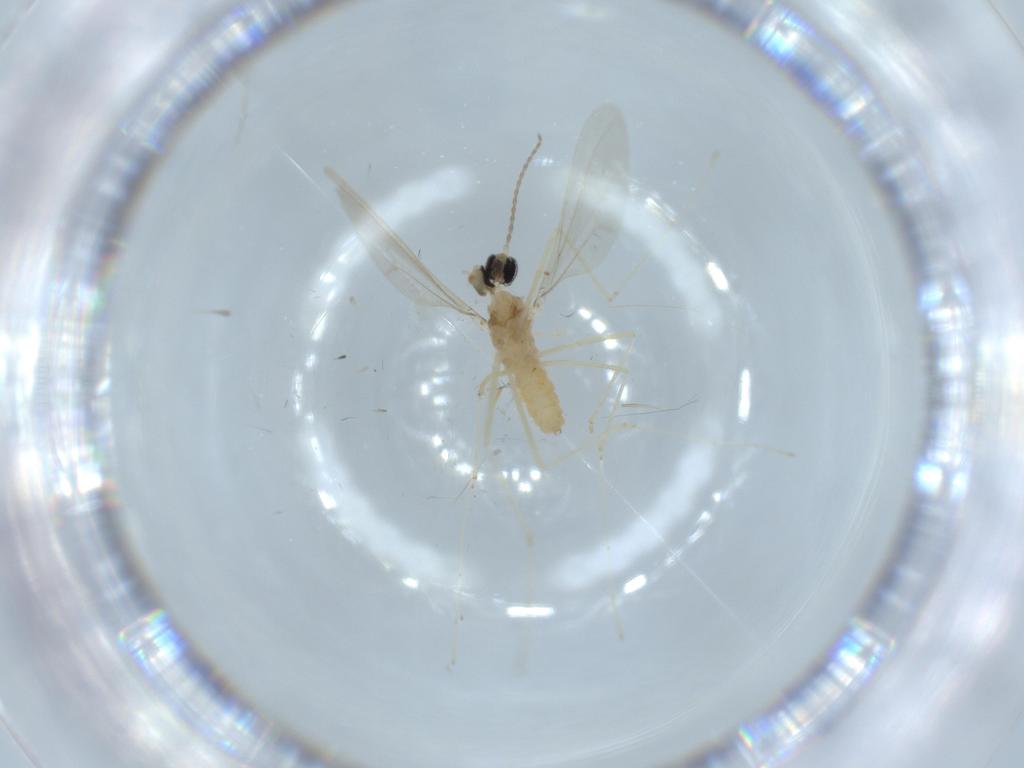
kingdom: Animalia
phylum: Arthropoda
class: Insecta
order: Diptera
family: Cecidomyiidae
